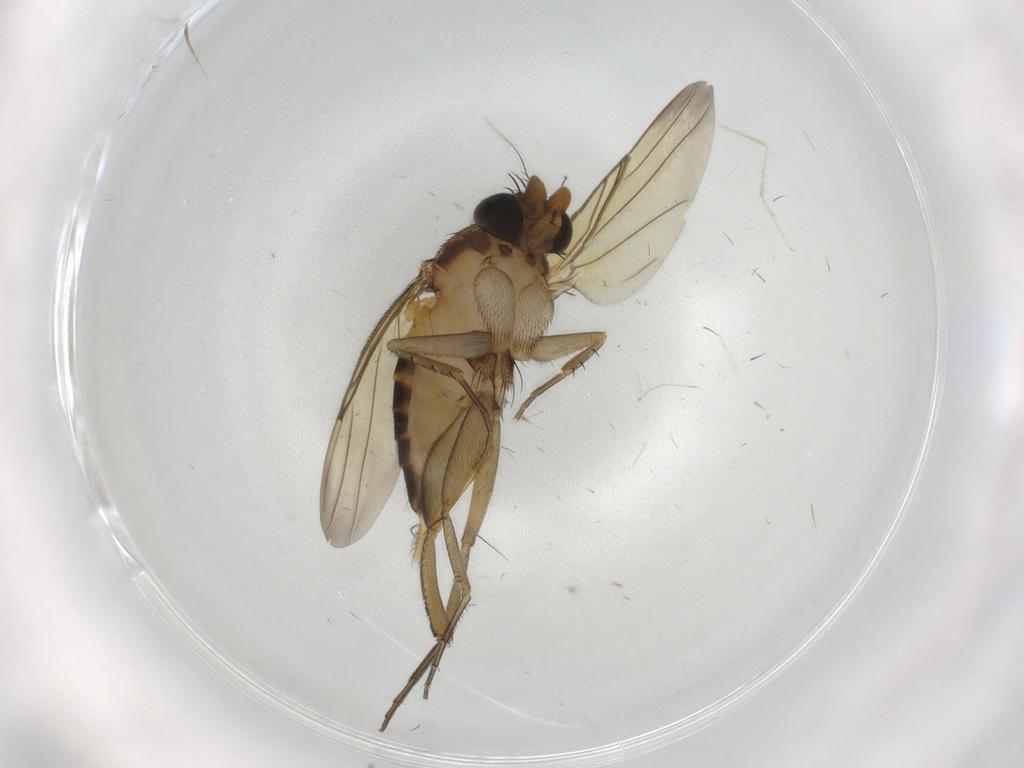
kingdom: Animalia
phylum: Arthropoda
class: Insecta
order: Diptera
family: Phoridae
